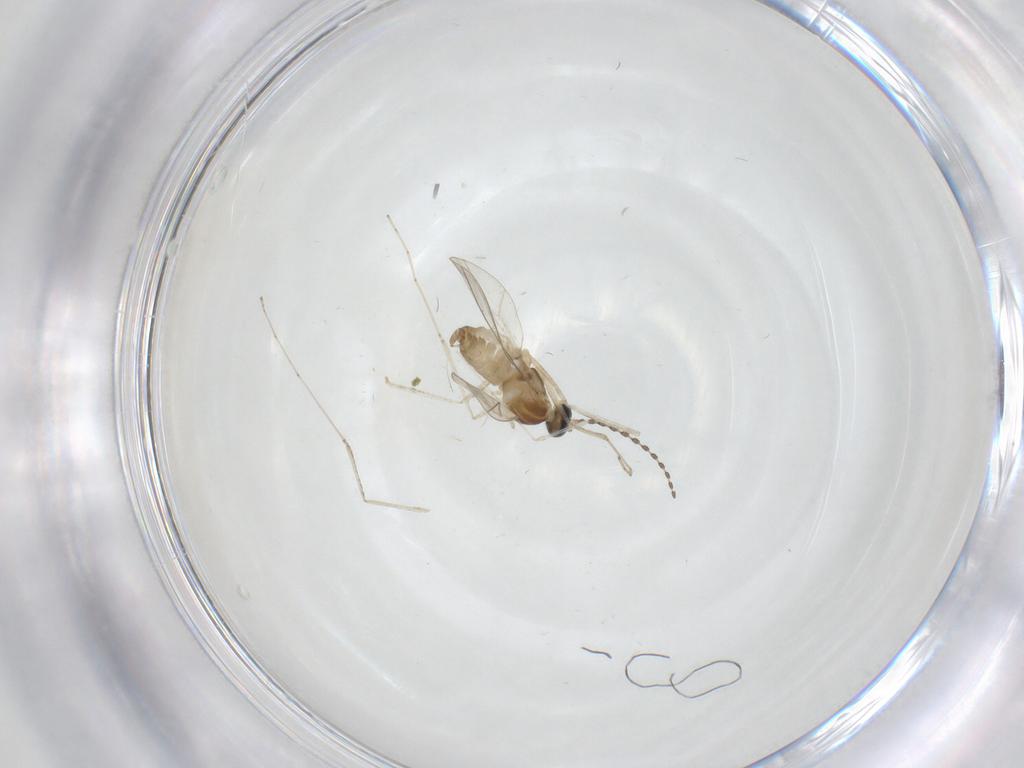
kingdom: Animalia
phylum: Arthropoda
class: Insecta
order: Diptera
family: Cecidomyiidae
